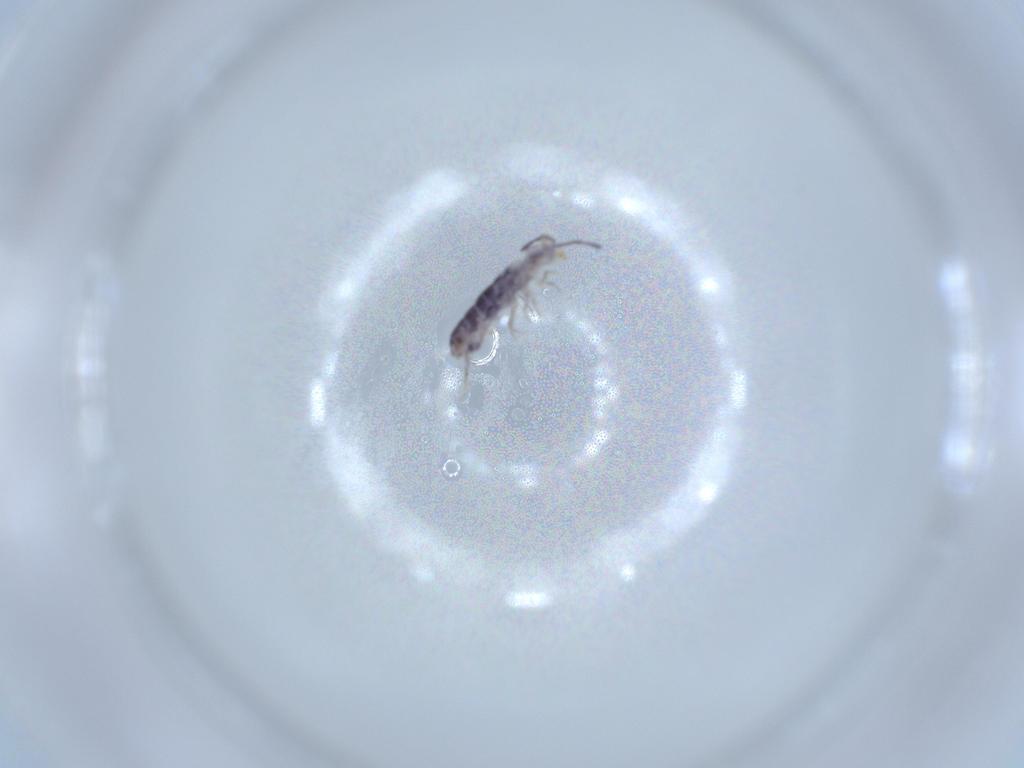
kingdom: Animalia
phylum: Arthropoda
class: Collembola
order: Entomobryomorpha
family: Isotomidae
